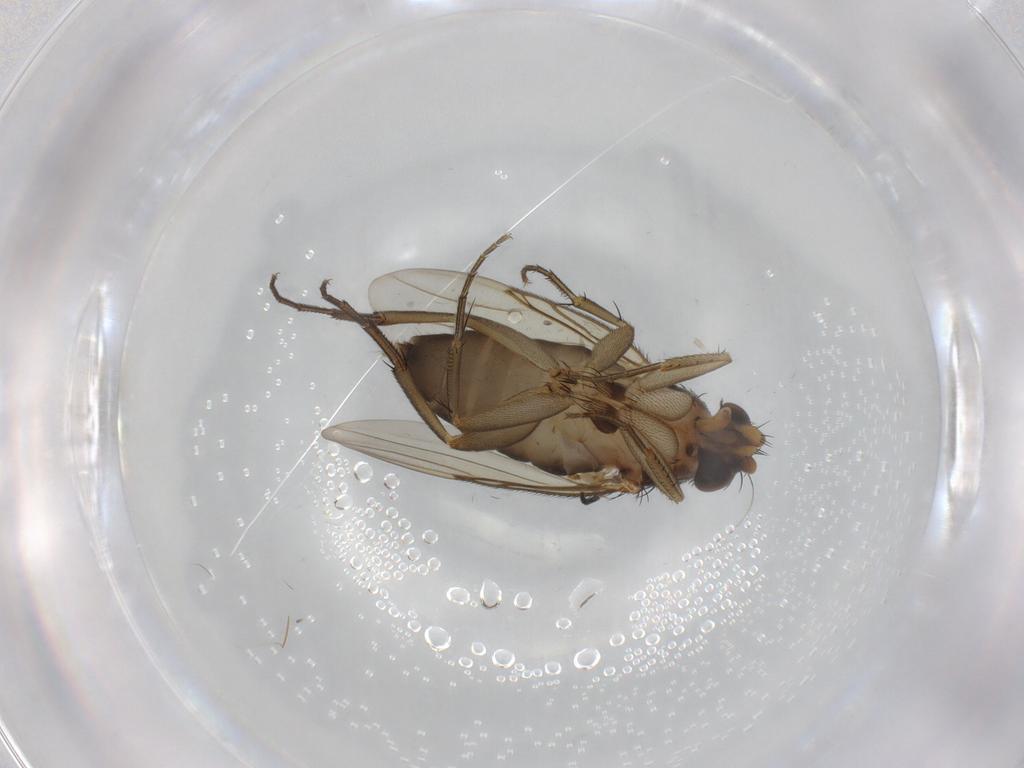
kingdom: Animalia
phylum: Arthropoda
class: Insecta
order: Diptera
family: Phoridae
